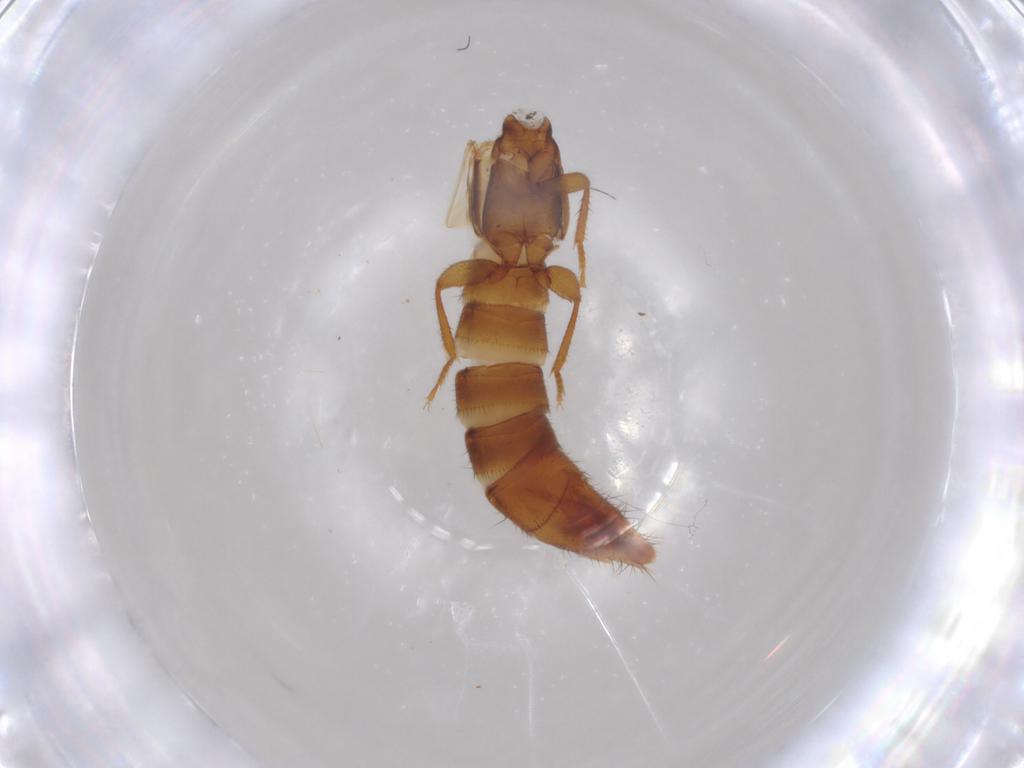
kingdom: Animalia
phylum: Arthropoda
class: Insecta
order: Coleoptera
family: Staphylinidae
